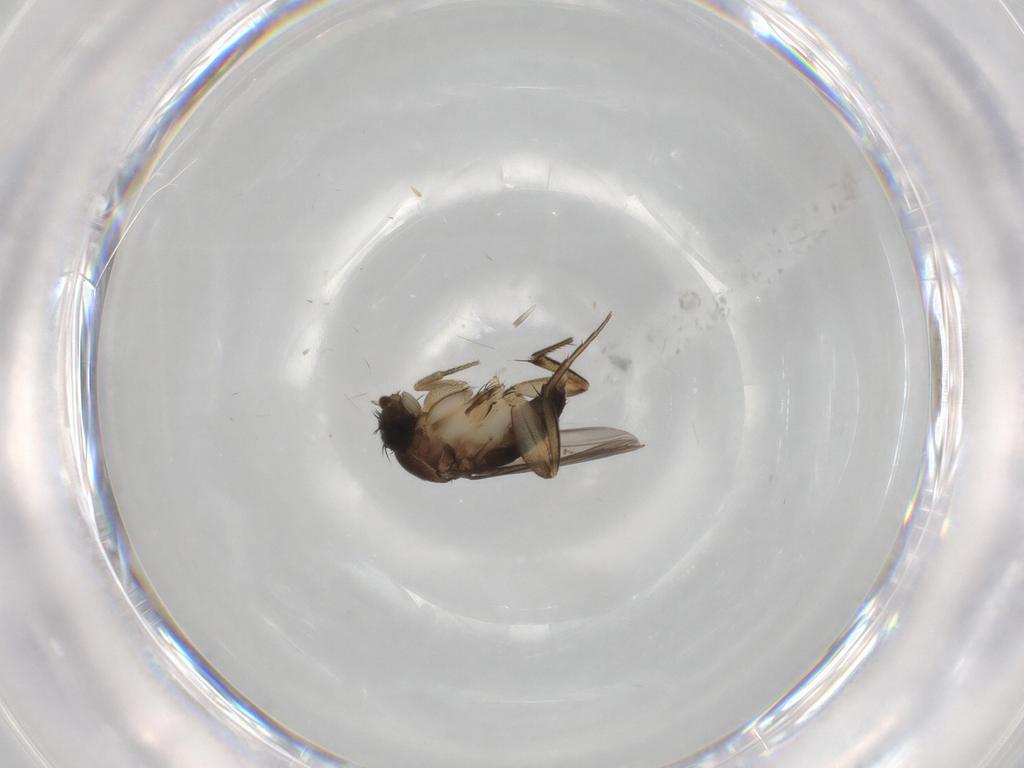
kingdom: Animalia
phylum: Arthropoda
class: Insecta
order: Diptera
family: Phoridae
